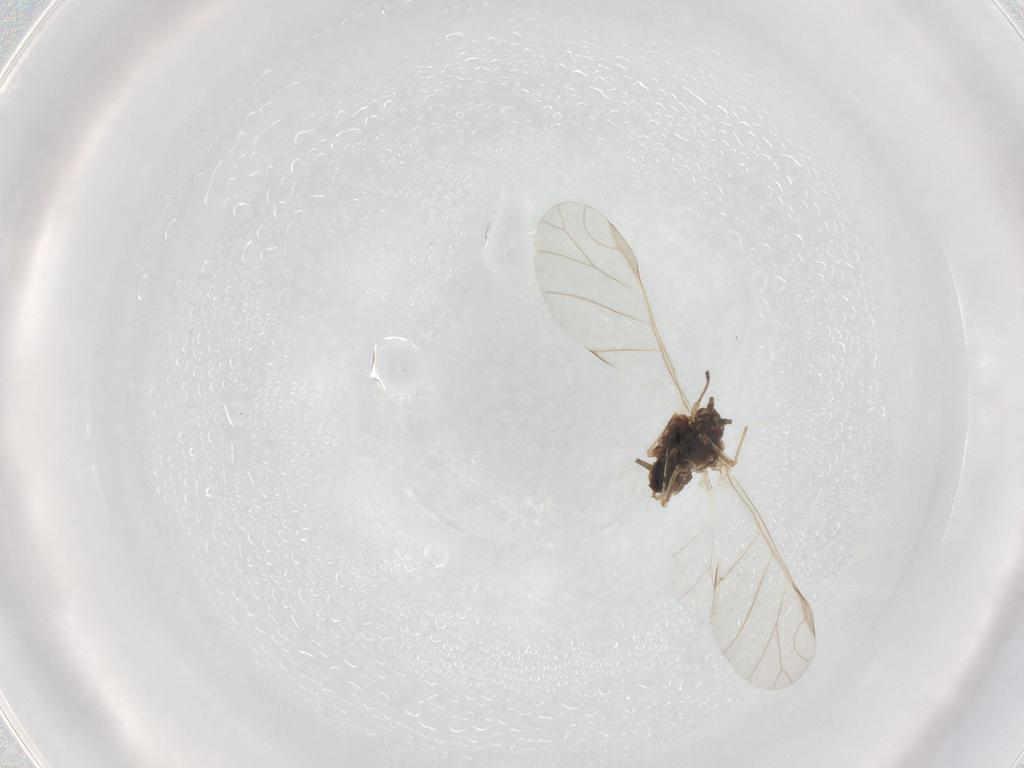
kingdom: Animalia
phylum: Arthropoda
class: Insecta
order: Hemiptera
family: Aphididae
